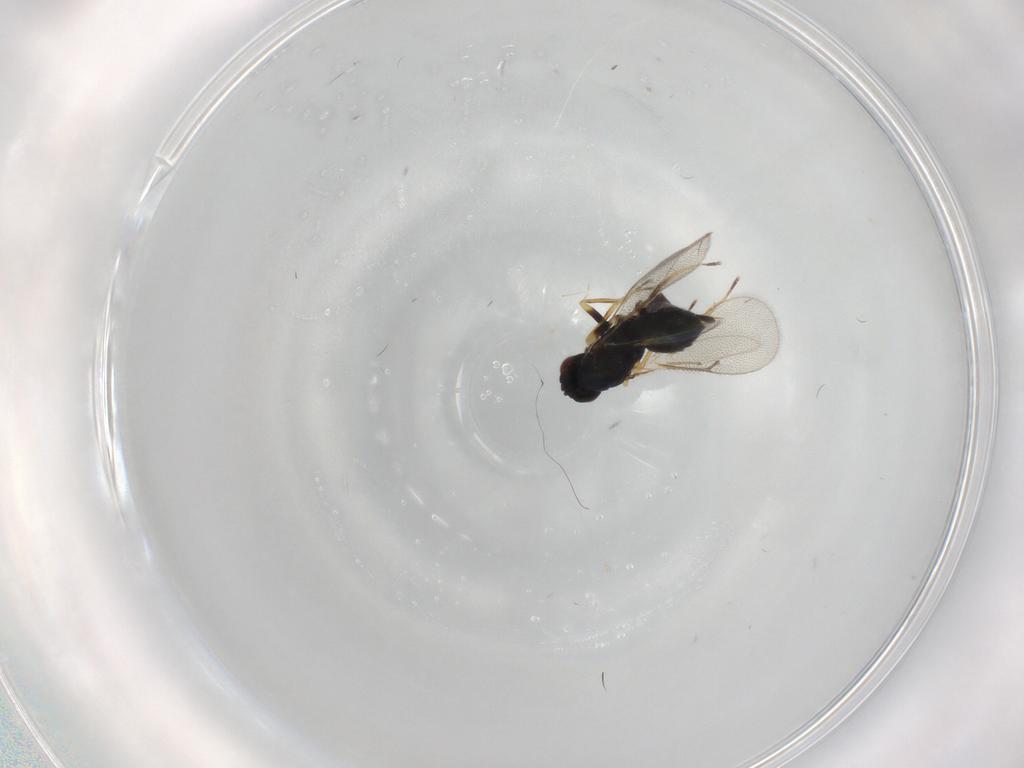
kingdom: Animalia
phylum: Arthropoda
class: Insecta
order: Hymenoptera
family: Eulophidae
